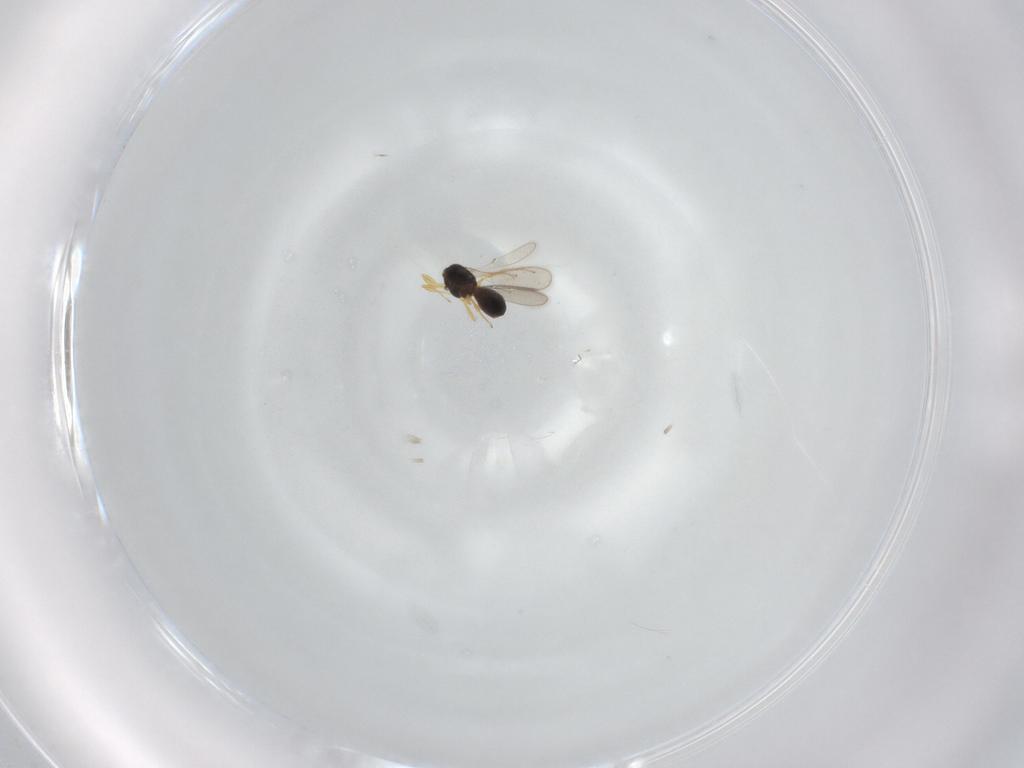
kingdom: Animalia
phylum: Arthropoda
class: Insecta
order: Hymenoptera
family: Scelionidae
